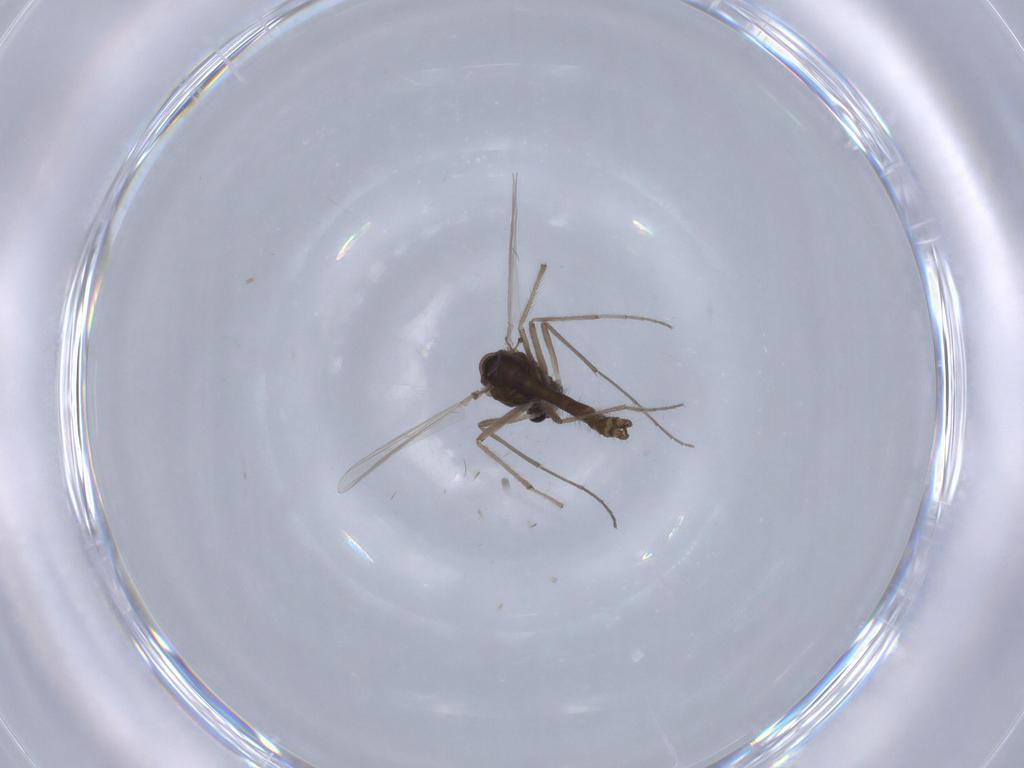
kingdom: Animalia
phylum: Arthropoda
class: Insecta
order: Diptera
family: Chironomidae
